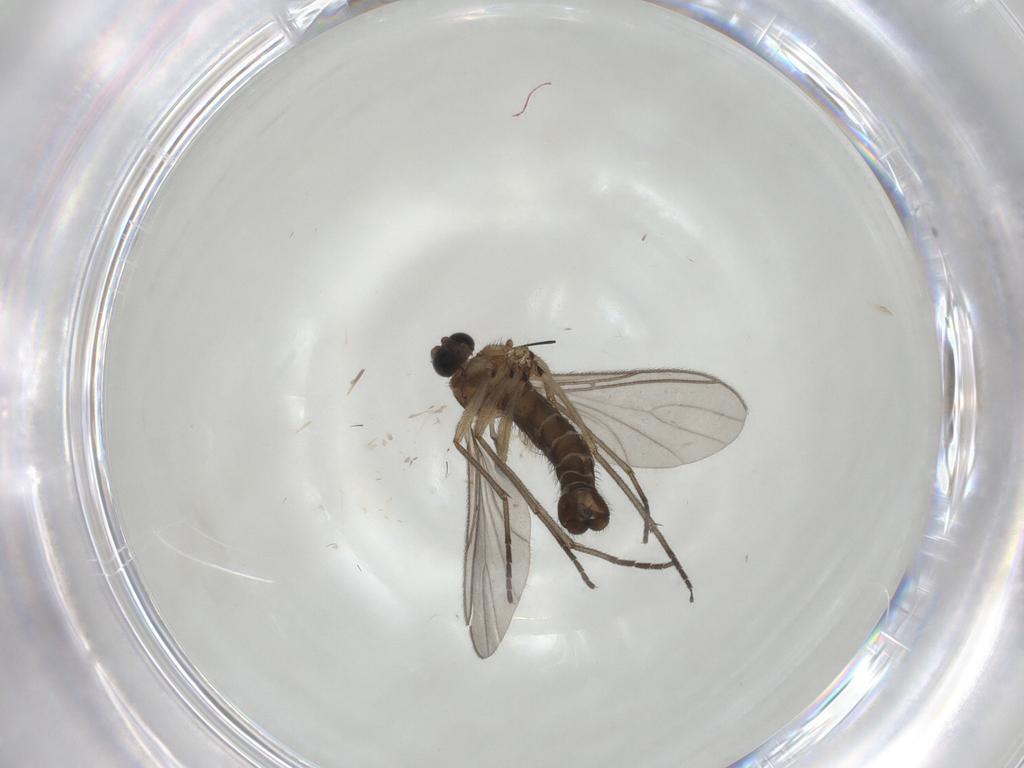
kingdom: Animalia
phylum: Arthropoda
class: Insecta
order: Diptera
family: Sciaridae
